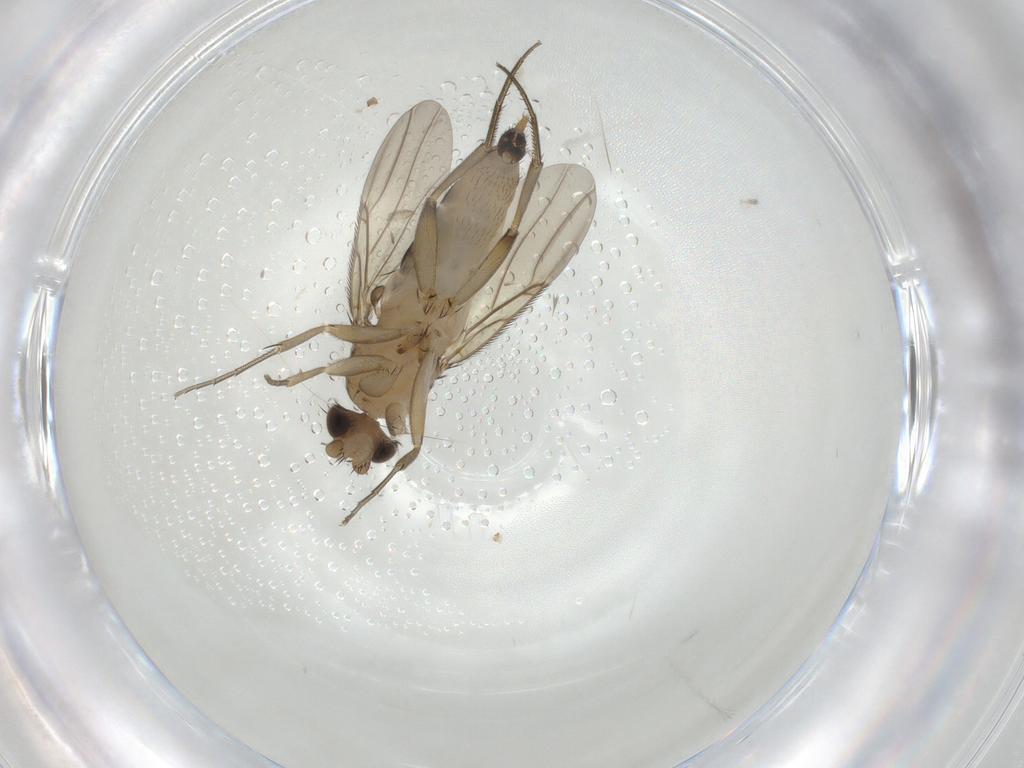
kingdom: Animalia
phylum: Arthropoda
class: Insecta
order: Diptera
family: Phoridae
